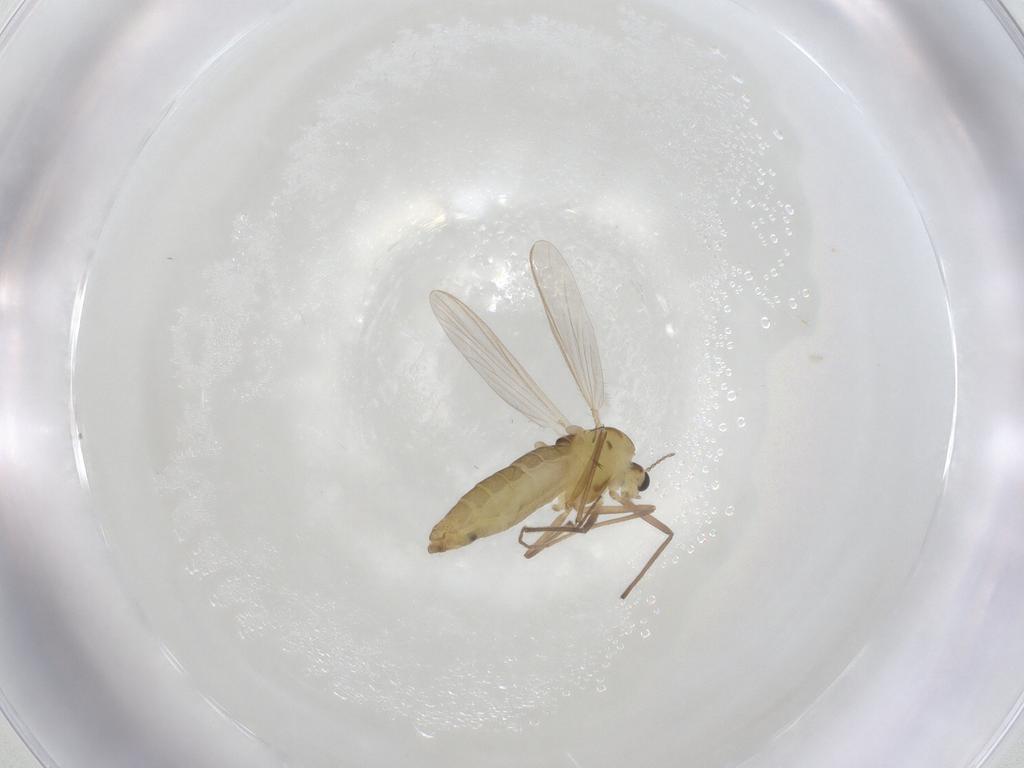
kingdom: Animalia
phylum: Arthropoda
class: Insecta
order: Diptera
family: Chironomidae
